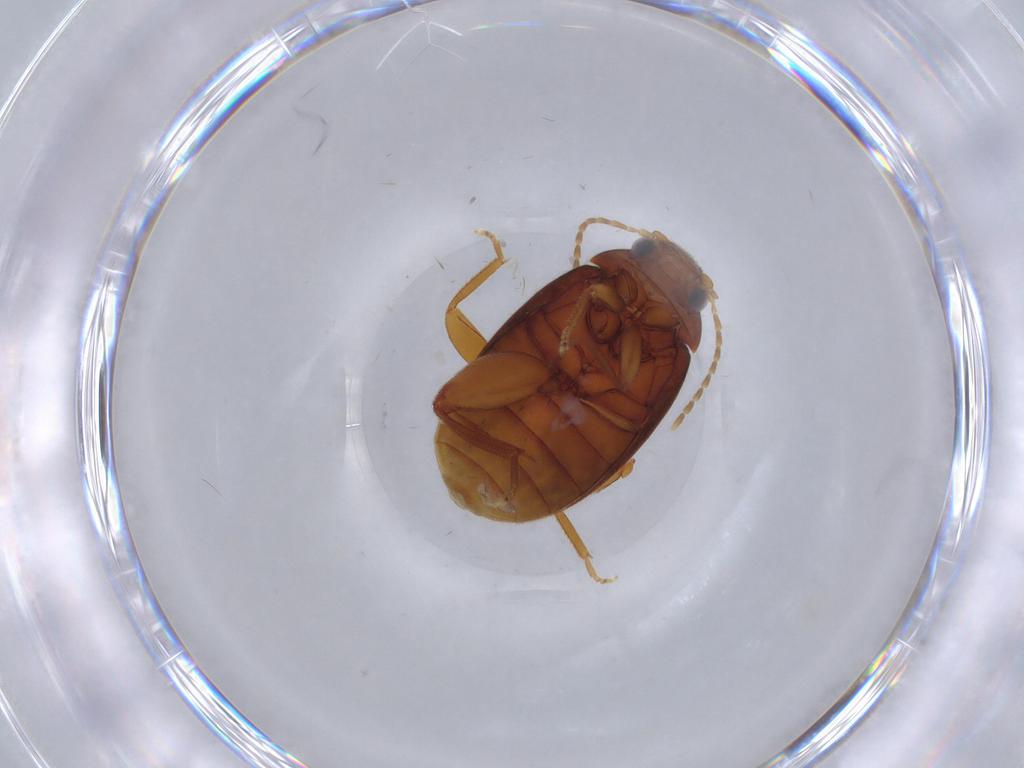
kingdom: Animalia
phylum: Arthropoda
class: Insecta
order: Coleoptera
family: Scirtidae
